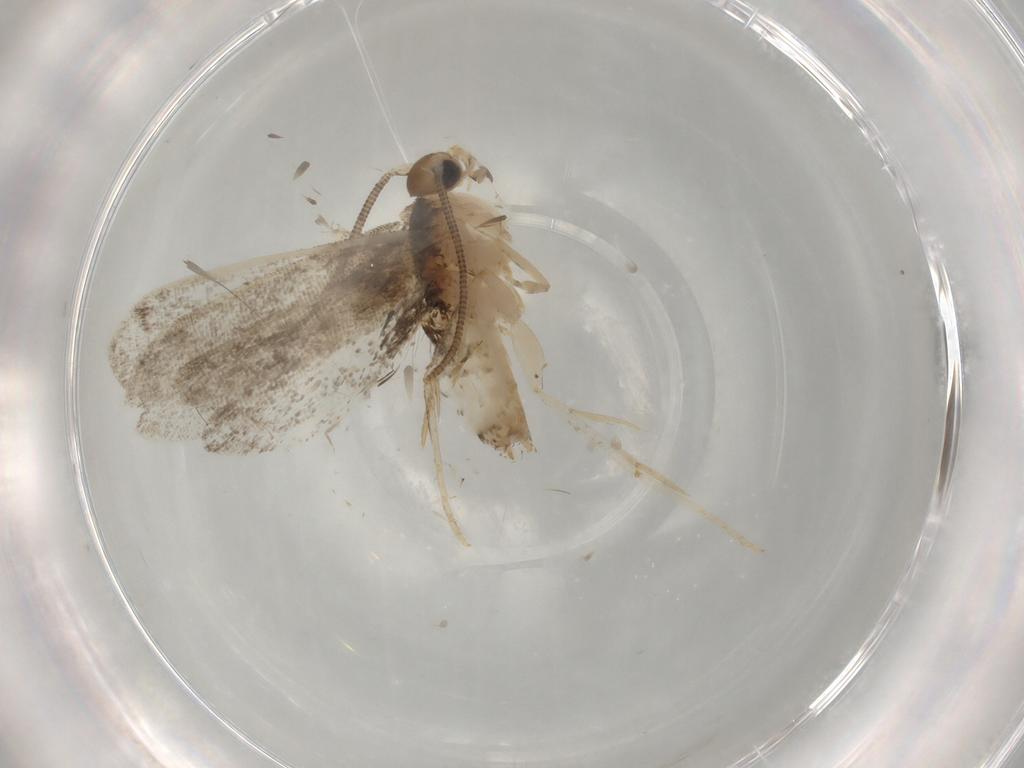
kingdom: Animalia
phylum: Arthropoda
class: Insecta
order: Lepidoptera
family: Dryadaulidae
